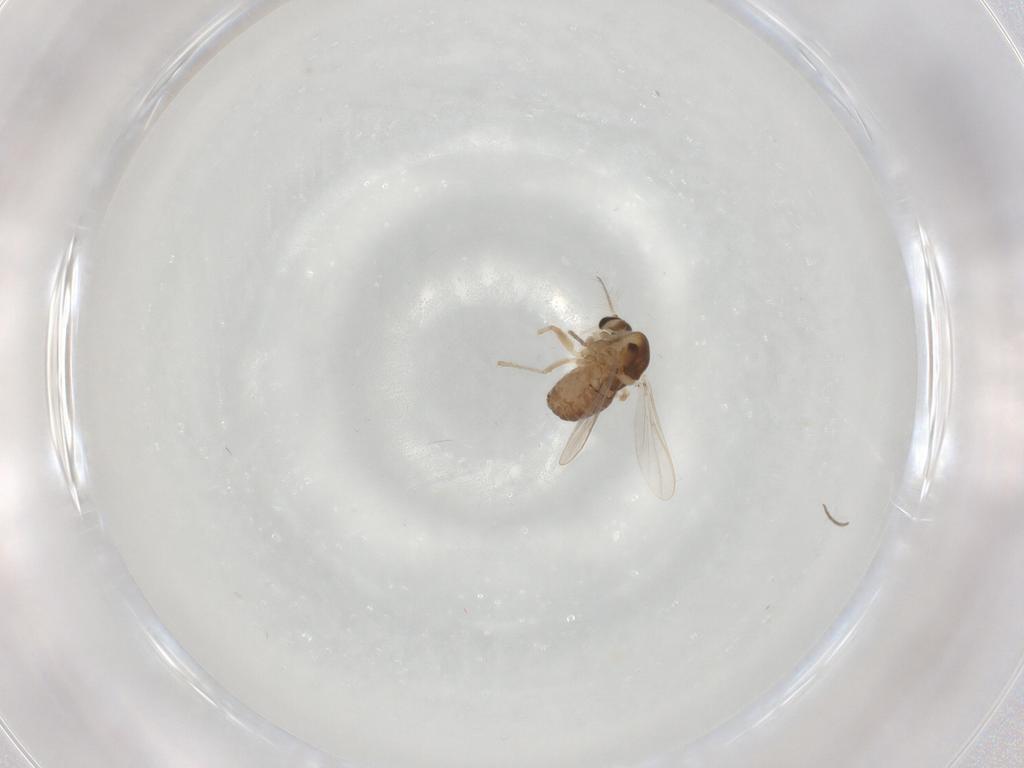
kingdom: Animalia
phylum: Arthropoda
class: Insecta
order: Diptera
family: Chironomidae
